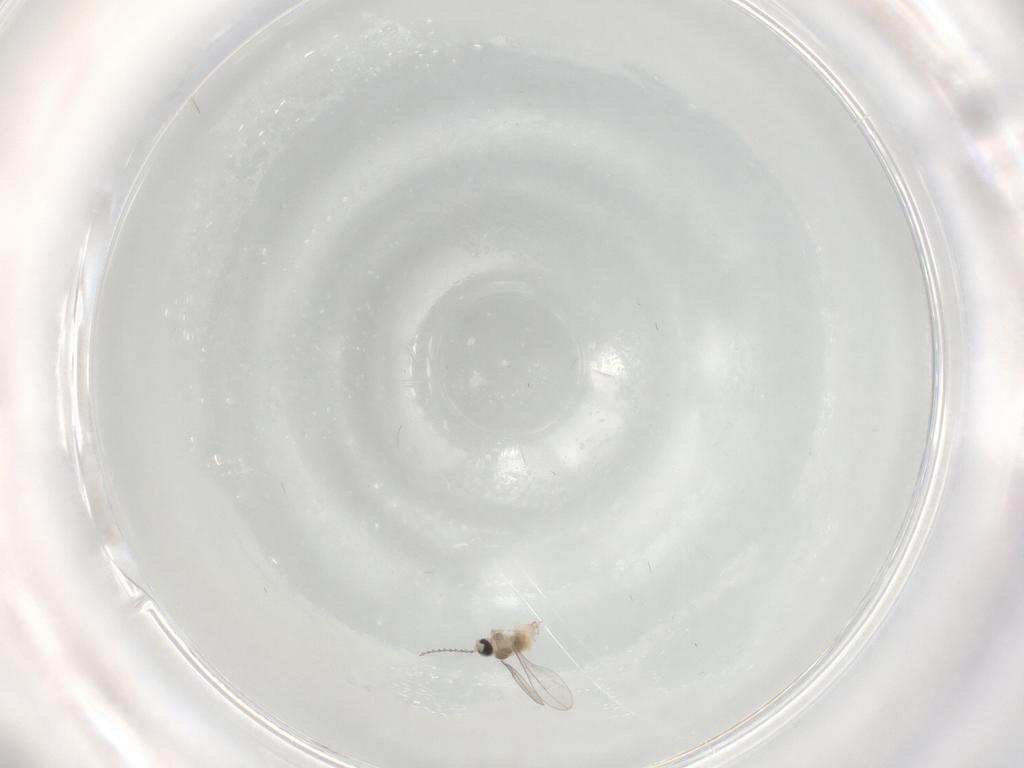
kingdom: Animalia
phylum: Arthropoda
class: Insecta
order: Diptera
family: Cecidomyiidae
